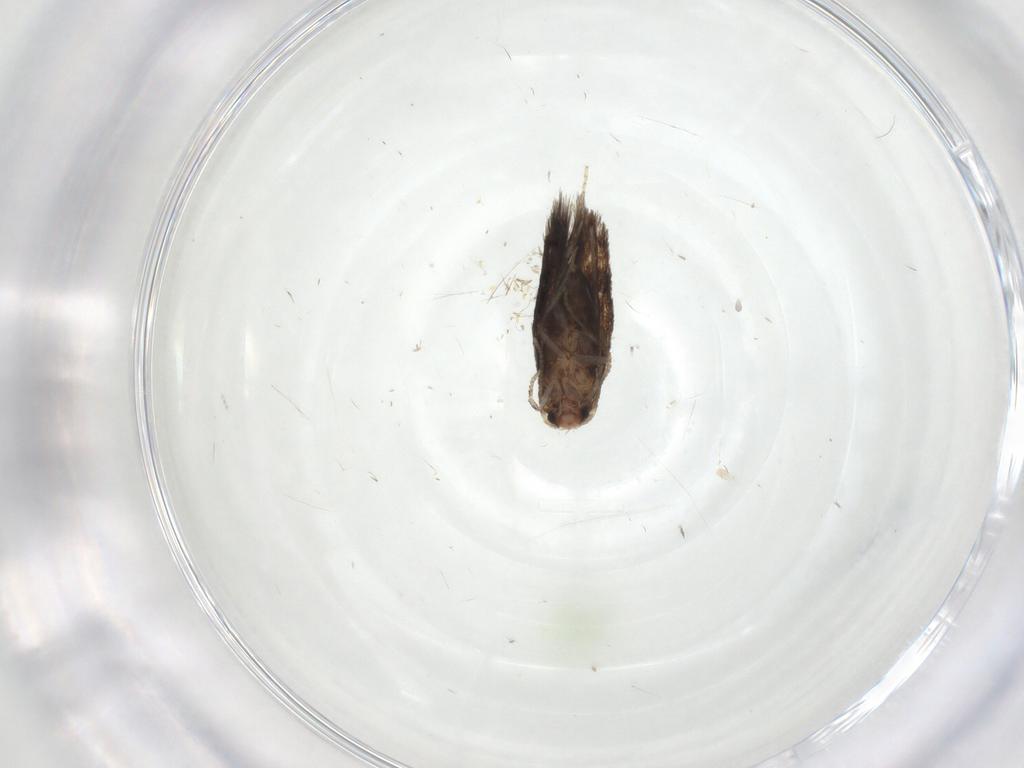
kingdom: Animalia
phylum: Arthropoda
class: Insecta
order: Lepidoptera
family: Nepticulidae
